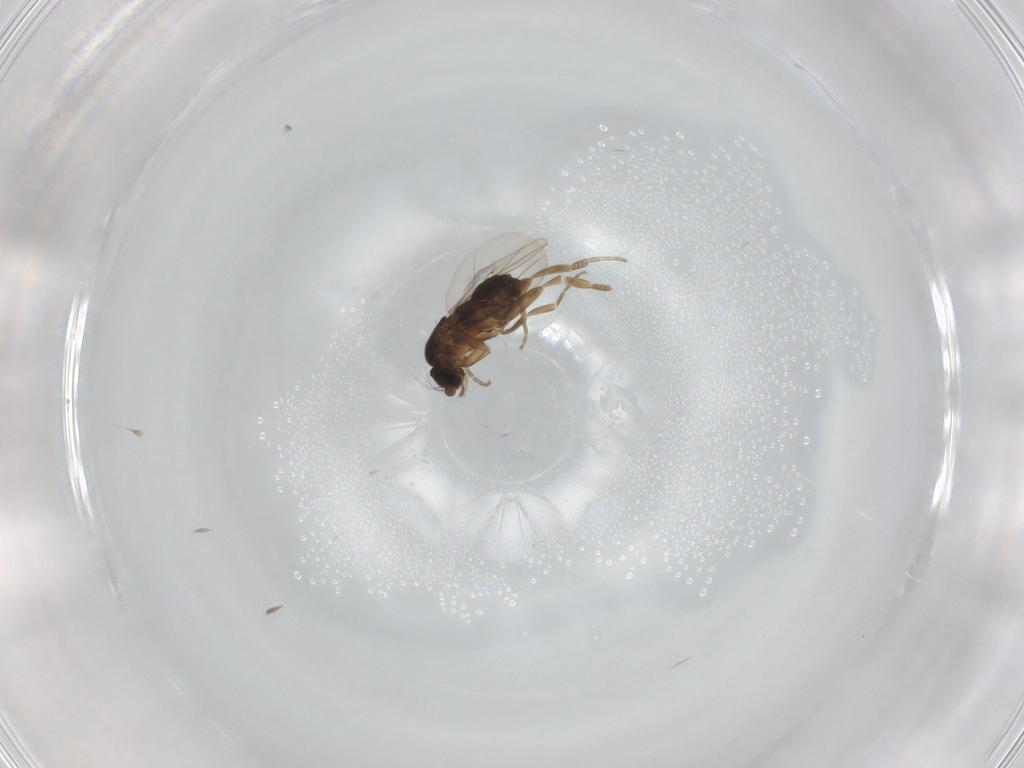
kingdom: Animalia
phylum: Arthropoda
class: Insecta
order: Diptera
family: Phoridae
